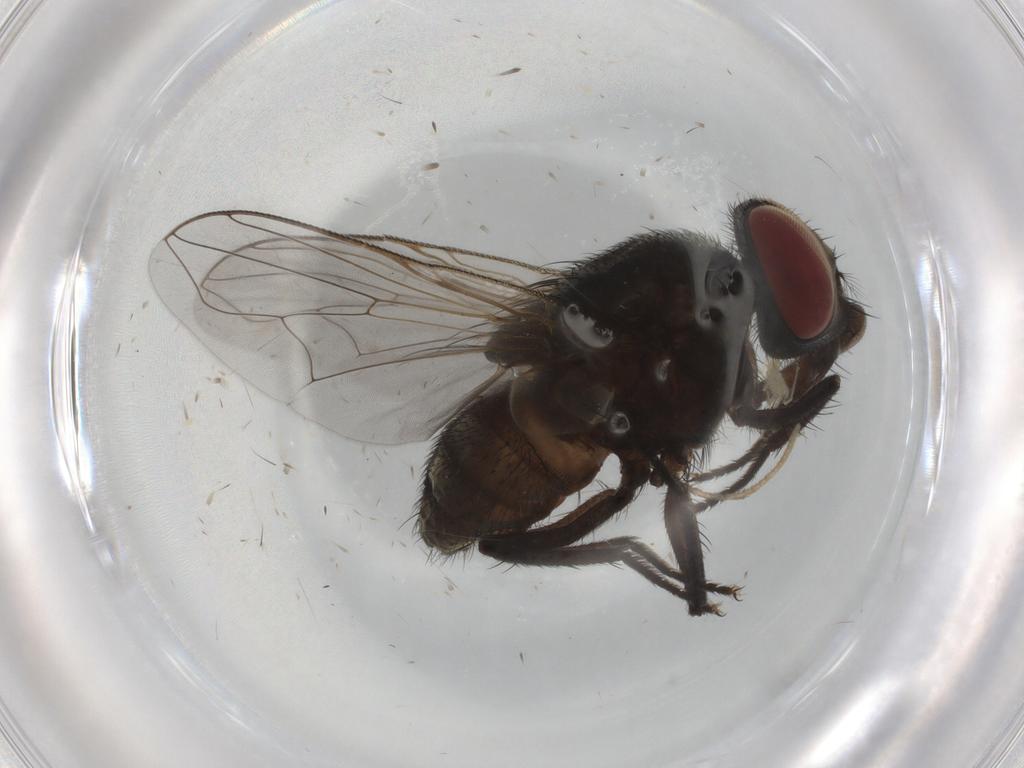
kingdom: Animalia
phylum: Arthropoda
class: Insecta
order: Diptera
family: Muscidae
